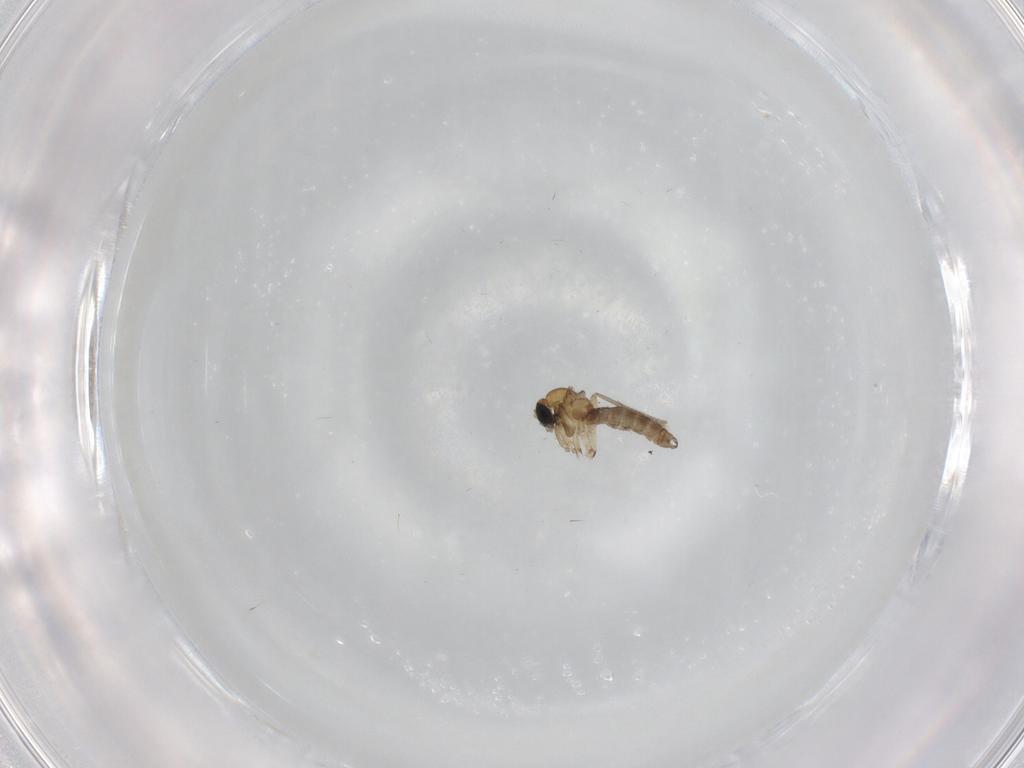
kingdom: Animalia
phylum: Arthropoda
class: Insecta
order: Diptera
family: Sciaridae
